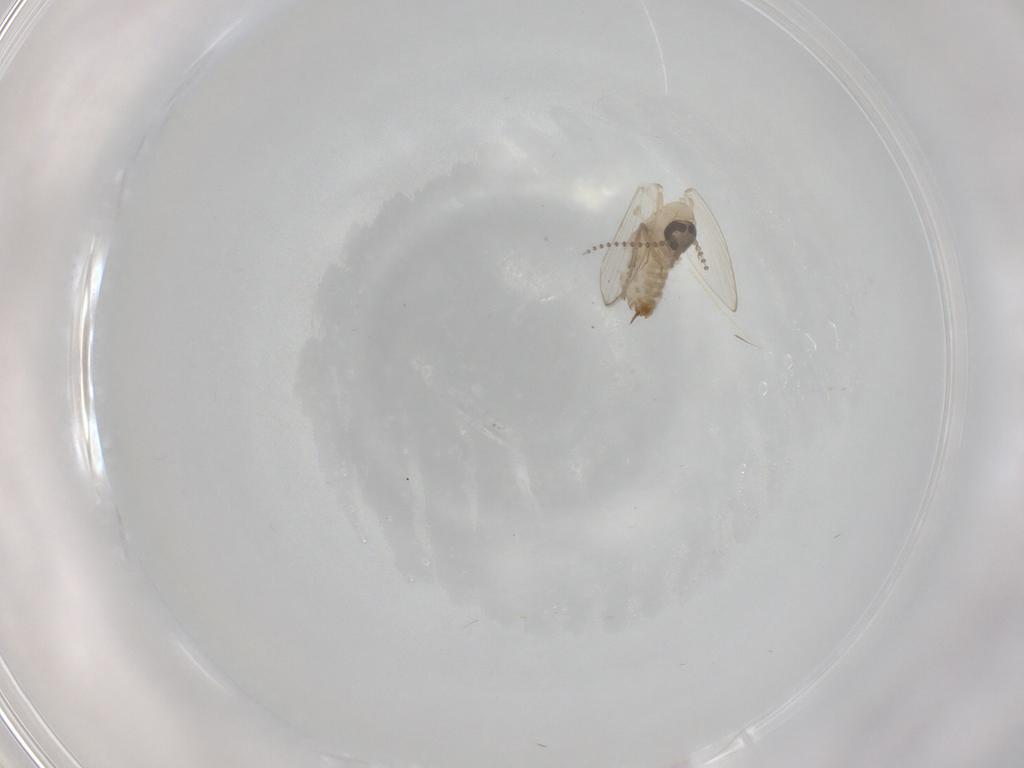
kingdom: Animalia
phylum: Arthropoda
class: Insecta
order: Diptera
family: Psychodidae
